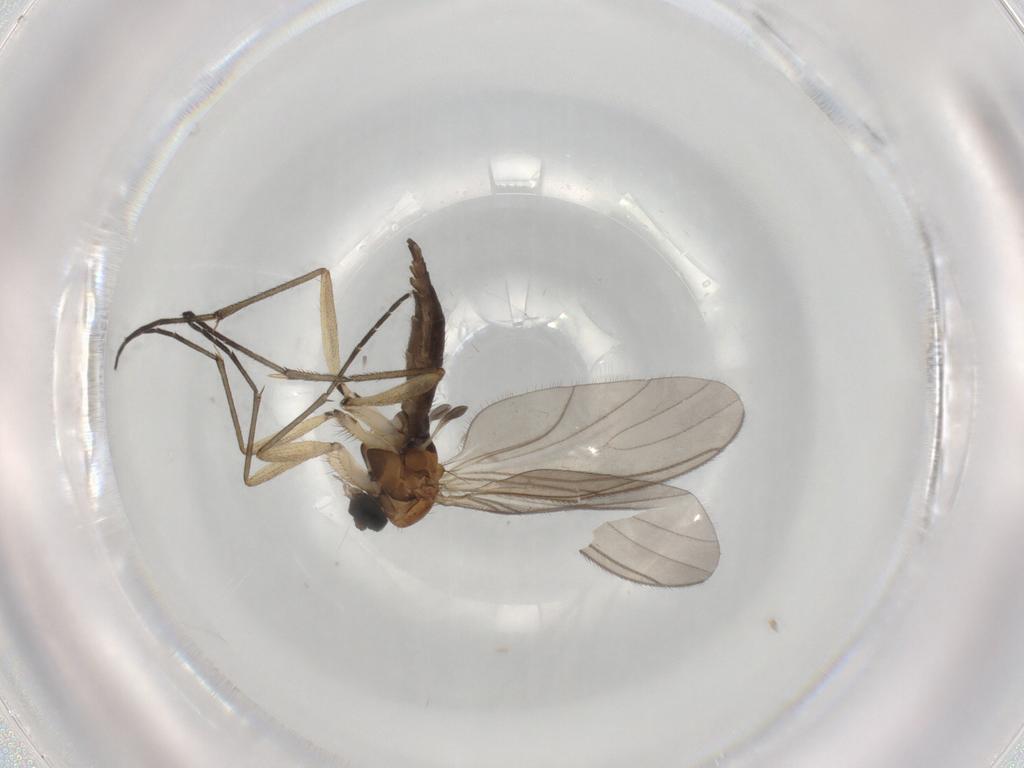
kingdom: Animalia
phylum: Arthropoda
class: Insecta
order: Diptera
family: Sciaridae
